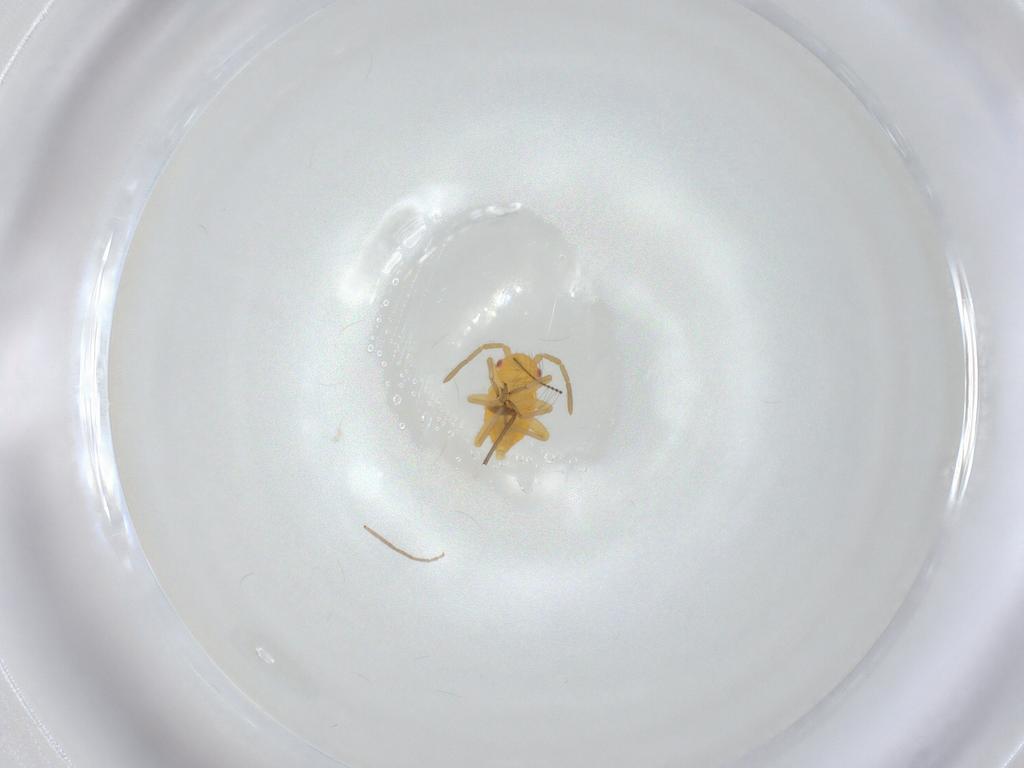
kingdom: Animalia
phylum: Arthropoda
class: Insecta
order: Hemiptera
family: Miridae
